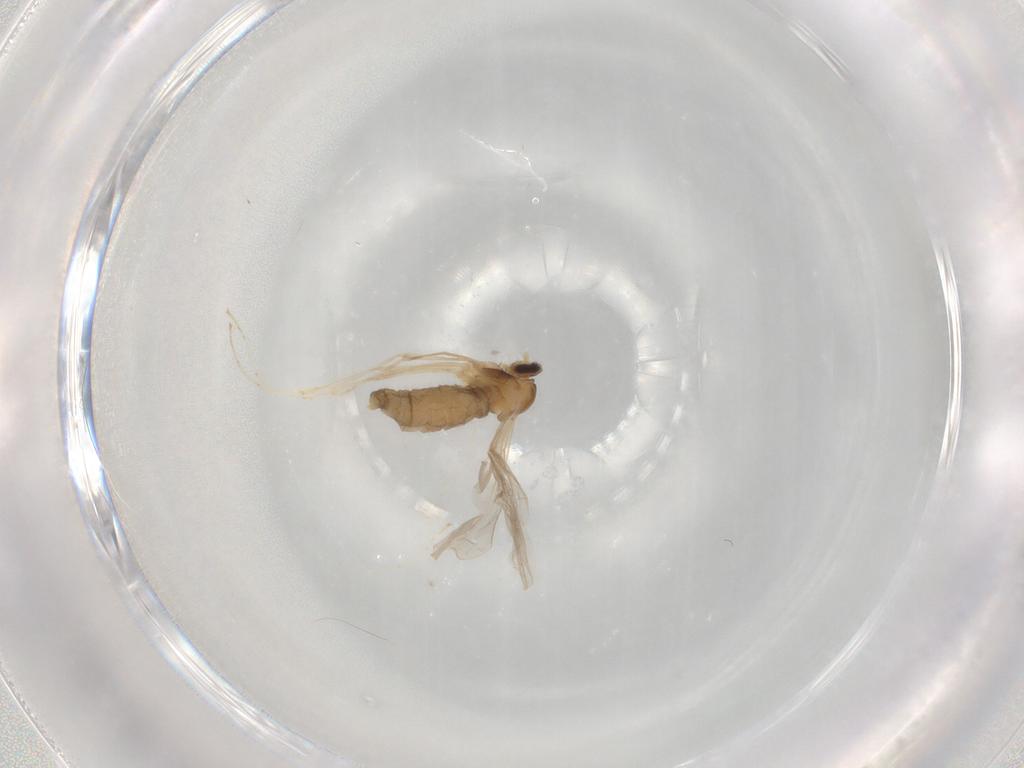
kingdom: Animalia
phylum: Arthropoda
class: Insecta
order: Diptera
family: Cecidomyiidae
